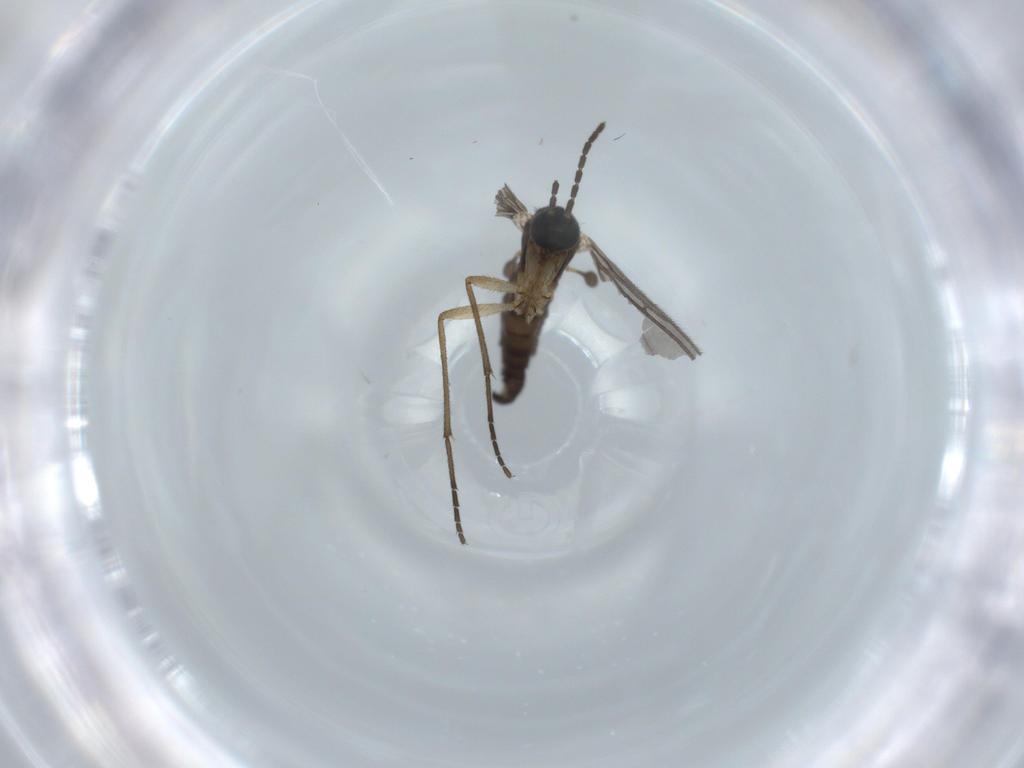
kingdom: Animalia
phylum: Arthropoda
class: Insecta
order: Diptera
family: Sciaridae
